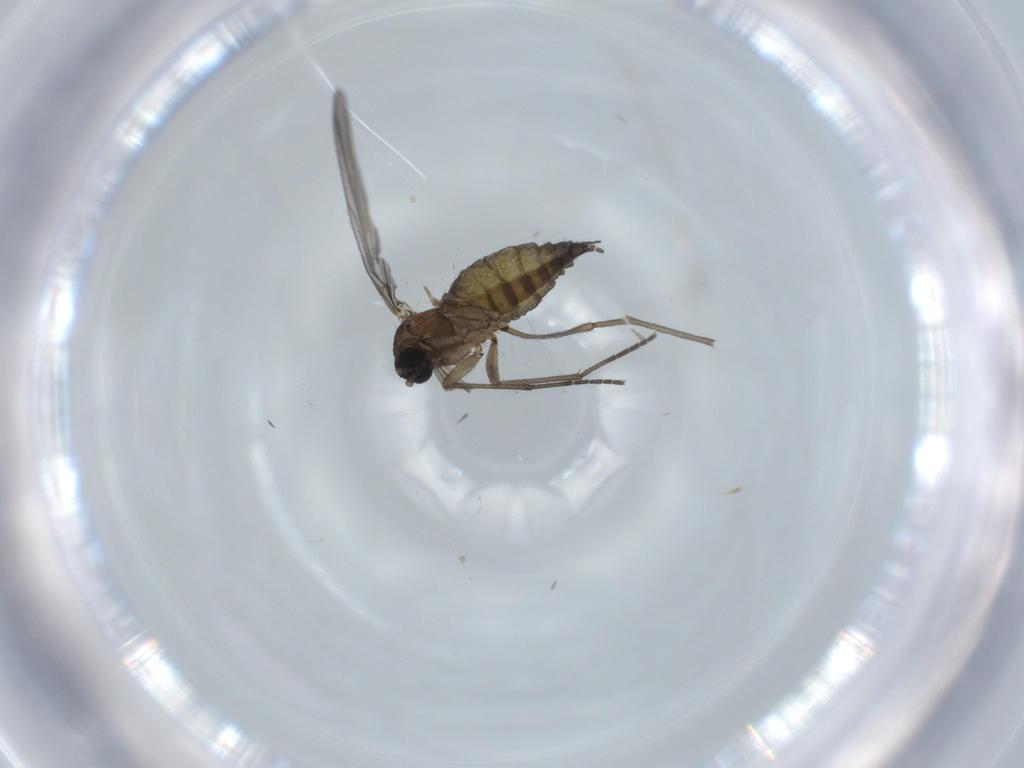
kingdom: Animalia
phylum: Arthropoda
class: Insecta
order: Diptera
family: Sciaridae
